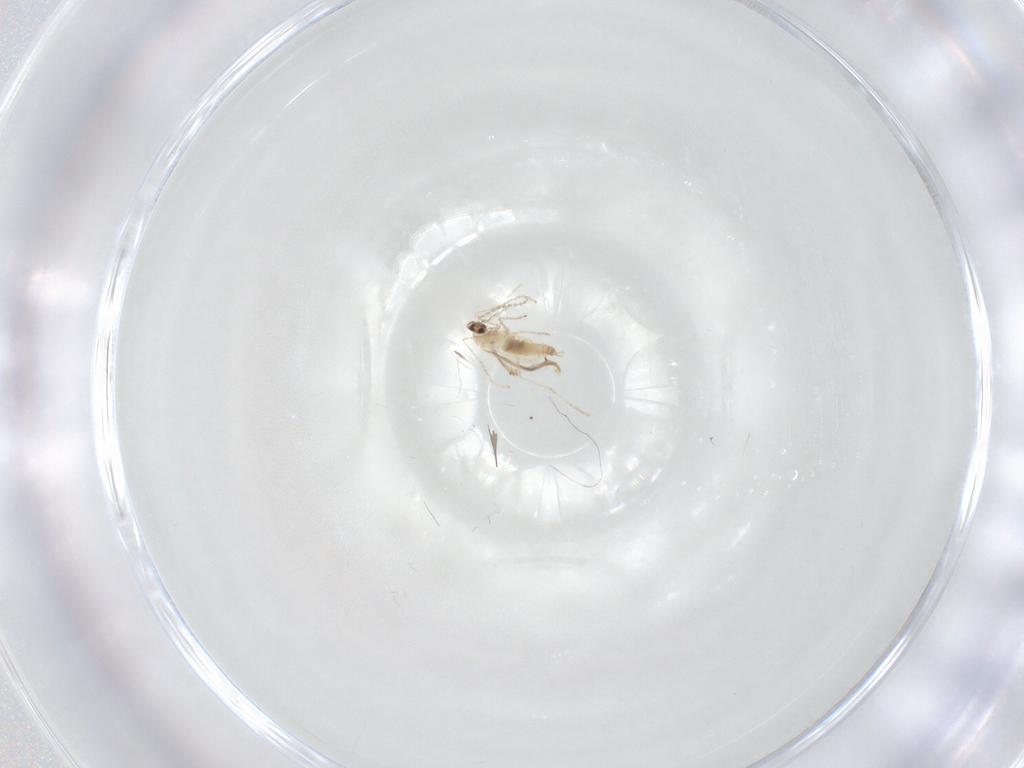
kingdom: Animalia
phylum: Arthropoda
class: Insecta
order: Diptera
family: Cecidomyiidae
